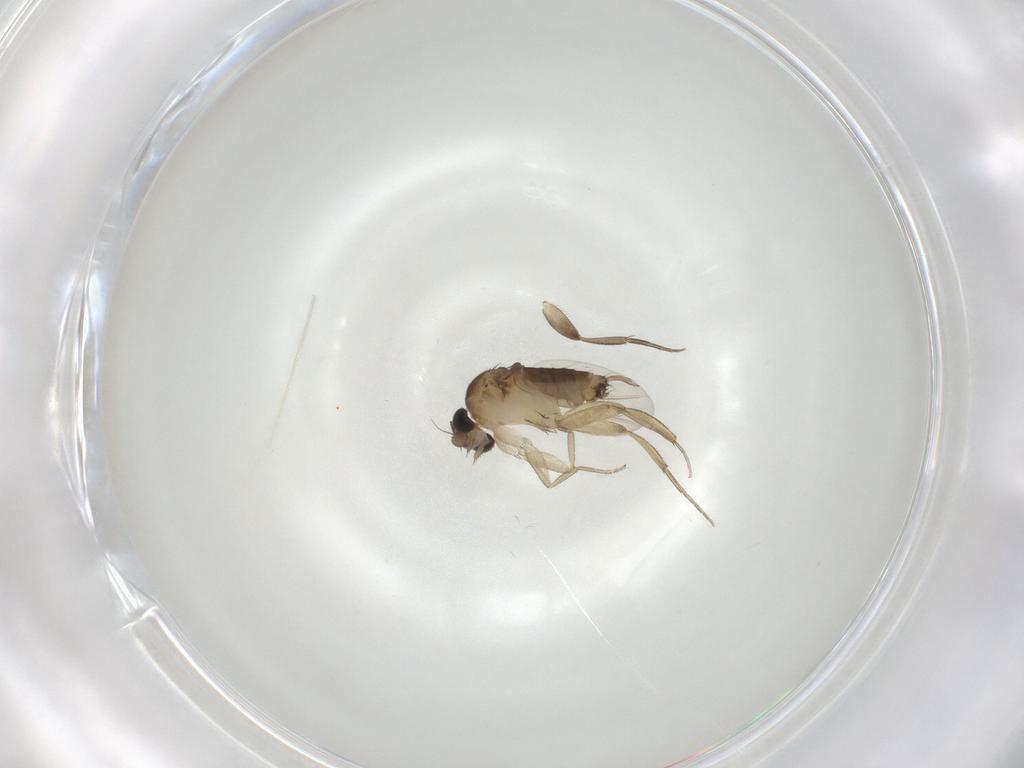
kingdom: Animalia
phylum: Arthropoda
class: Insecta
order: Diptera
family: Phoridae
